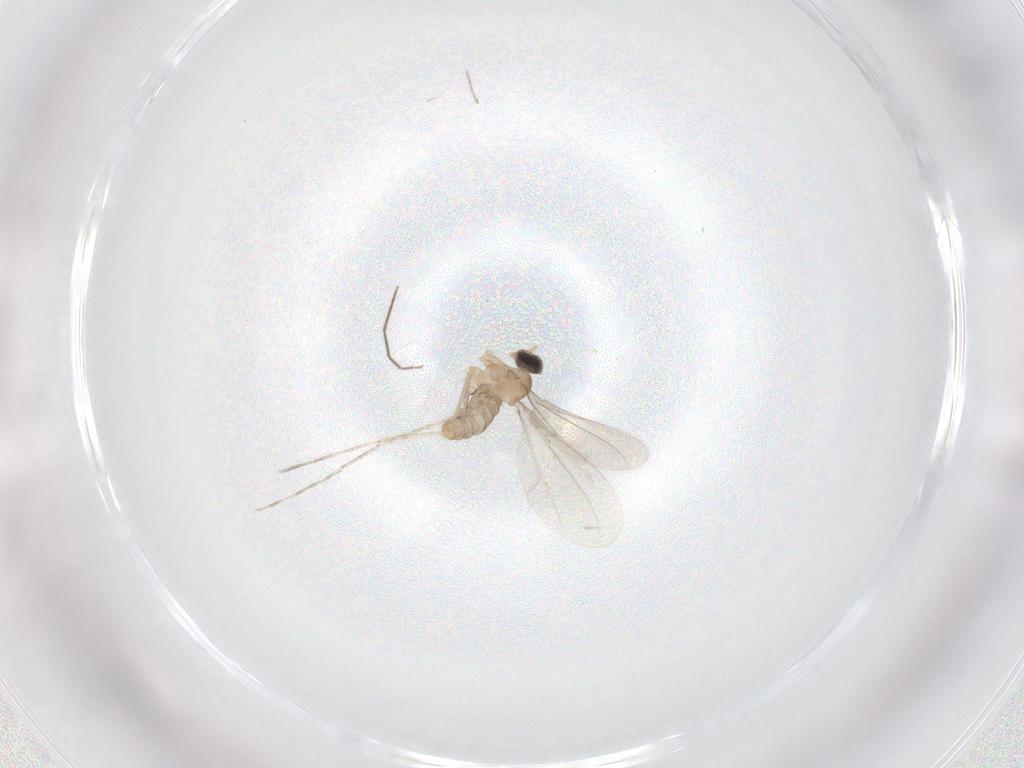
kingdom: Animalia
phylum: Arthropoda
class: Insecta
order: Diptera
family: Cecidomyiidae
